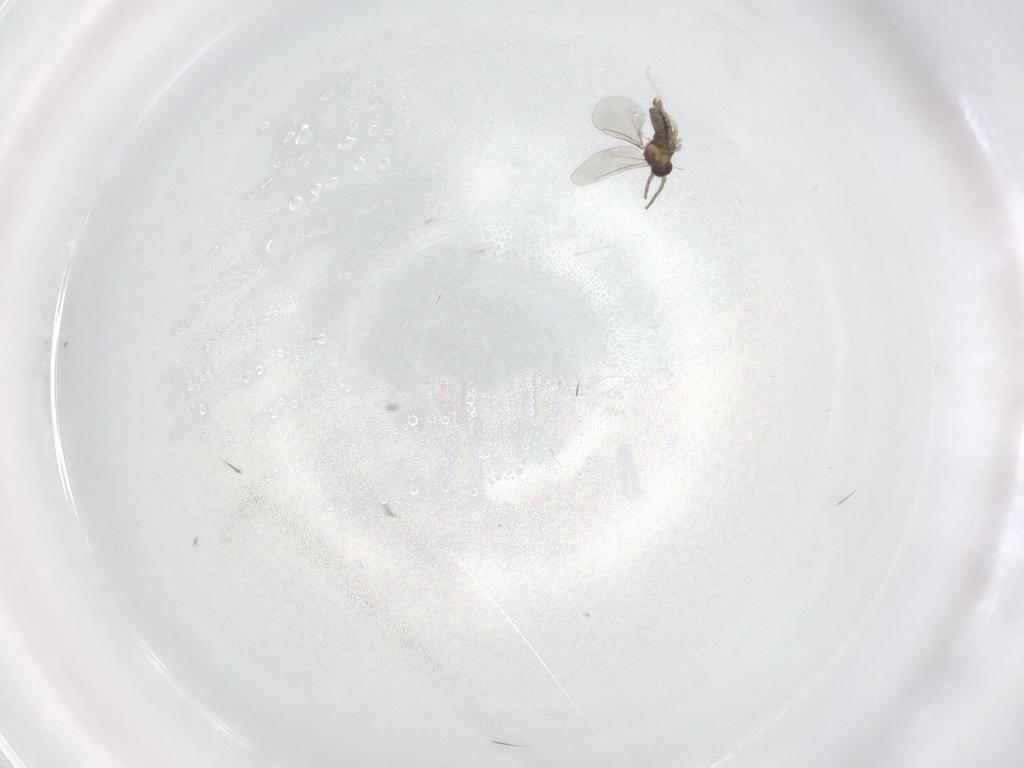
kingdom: Animalia
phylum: Arthropoda
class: Insecta
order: Diptera
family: Cecidomyiidae
